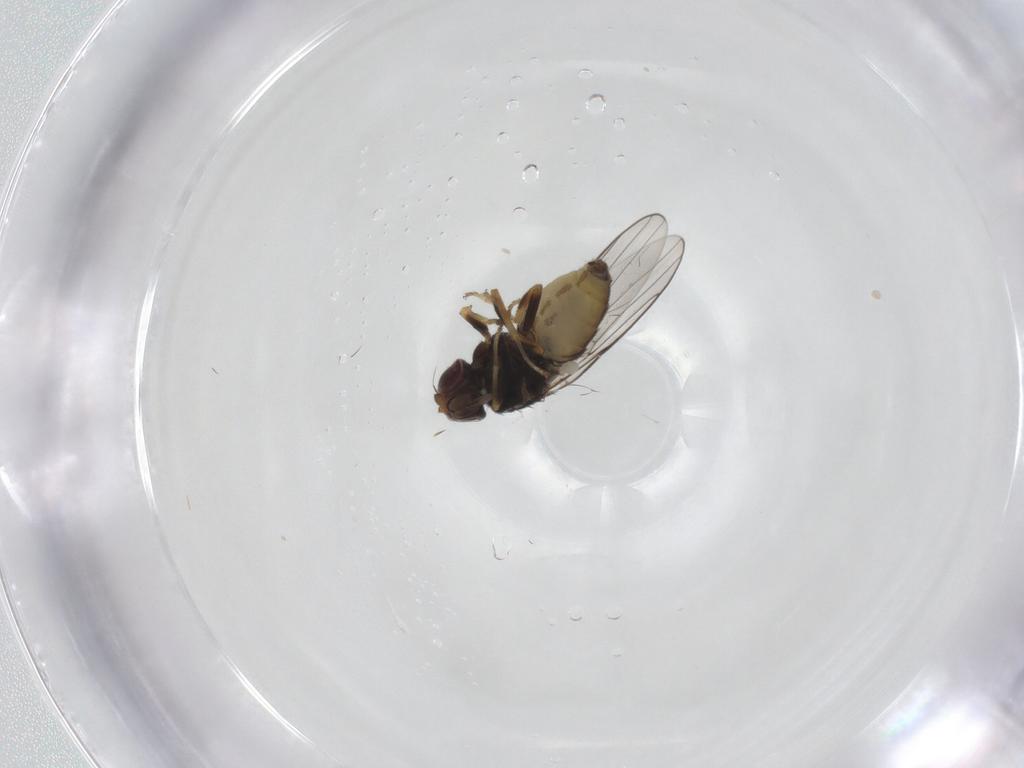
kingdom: Animalia
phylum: Arthropoda
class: Insecta
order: Diptera
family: Chloropidae
